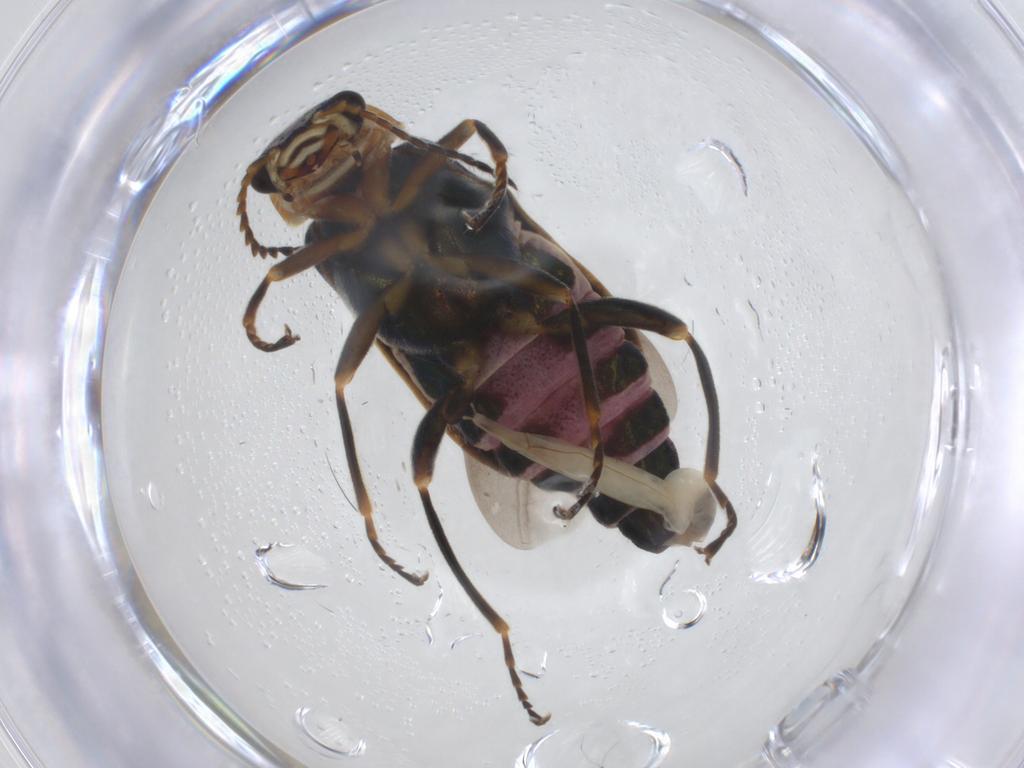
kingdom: Animalia
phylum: Arthropoda
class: Insecta
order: Coleoptera
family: Melyridae
